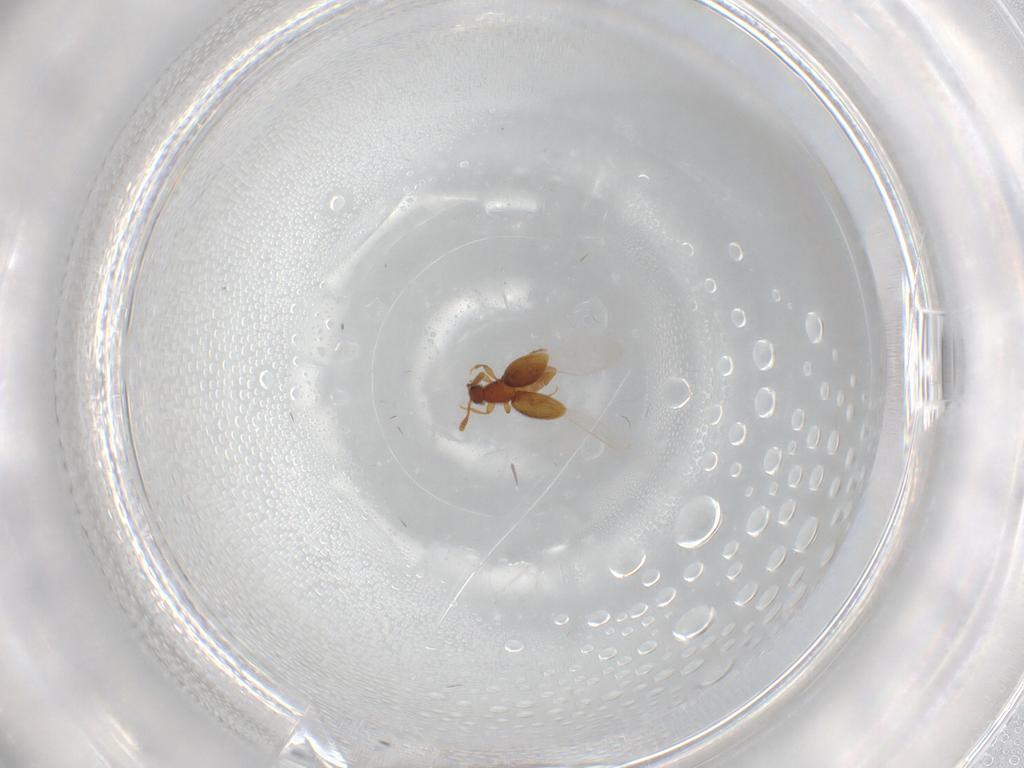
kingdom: Animalia
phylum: Arthropoda
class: Insecta
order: Coleoptera
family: Staphylinidae
